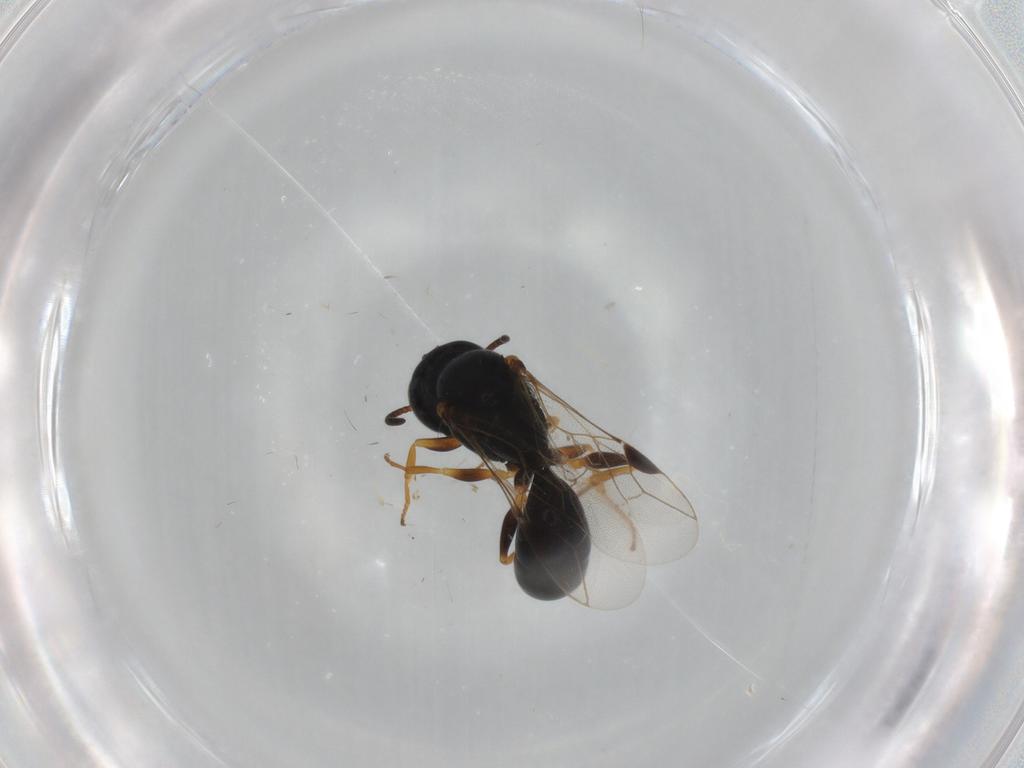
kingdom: Animalia
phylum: Arthropoda
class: Insecta
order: Hymenoptera
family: Crabronidae
